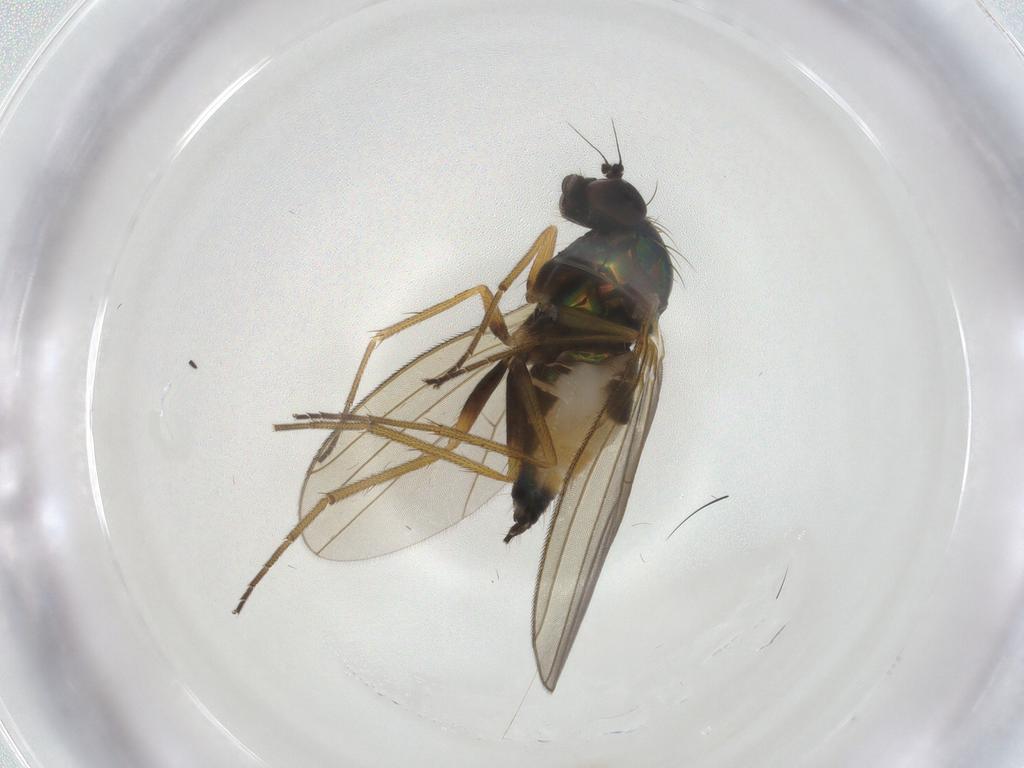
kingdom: Animalia
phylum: Arthropoda
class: Insecta
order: Diptera
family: Dolichopodidae
